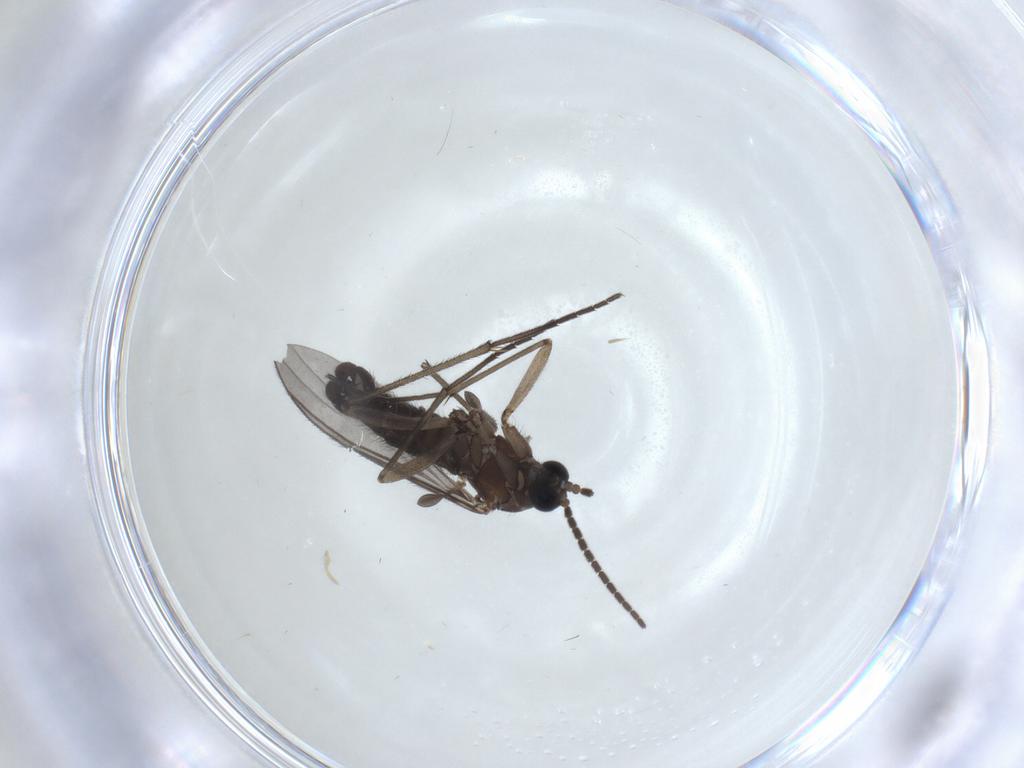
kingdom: Animalia
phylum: Arthropoda
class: Insecta
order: Diptera
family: Sciaridae
